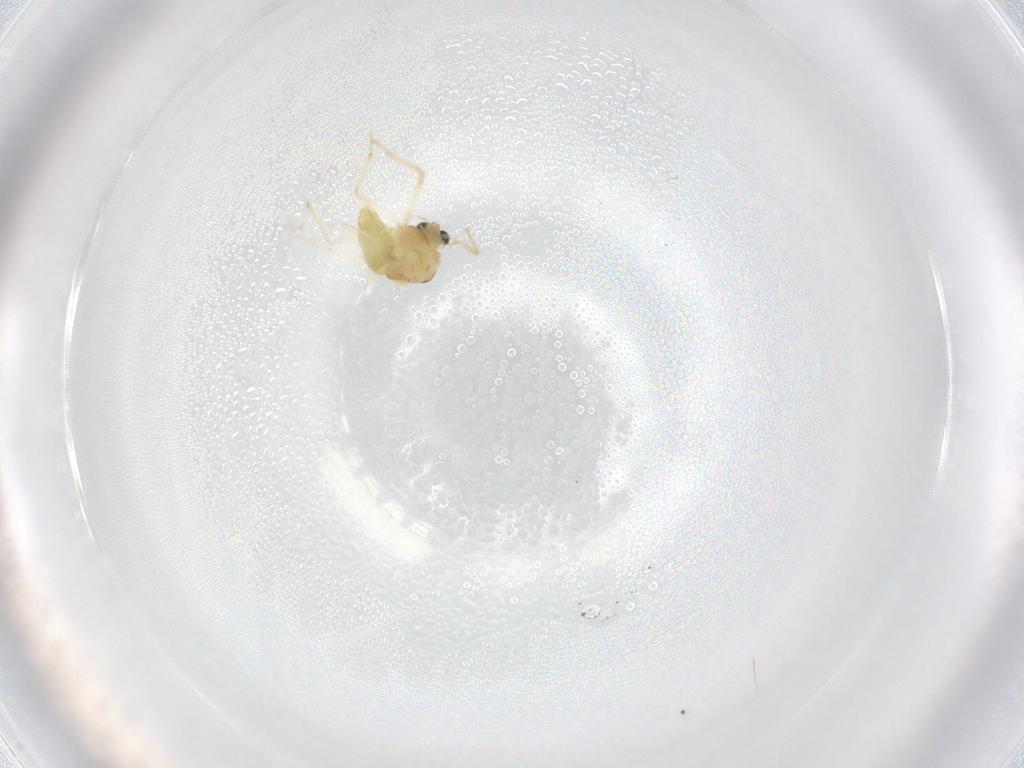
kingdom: Animalia
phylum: Arthropoda
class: Insecta
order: Diptera
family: Chironomidae
